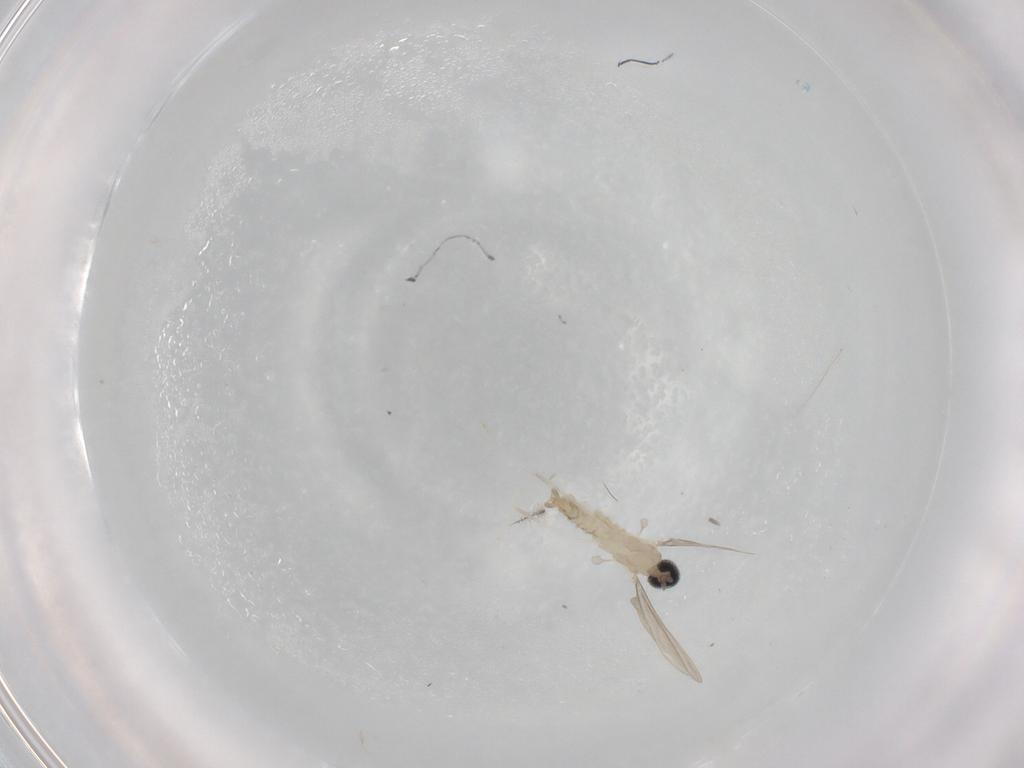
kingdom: Animalia
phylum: Arthropoda
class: Insecta
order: Diptera
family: Cecidomyiidae
